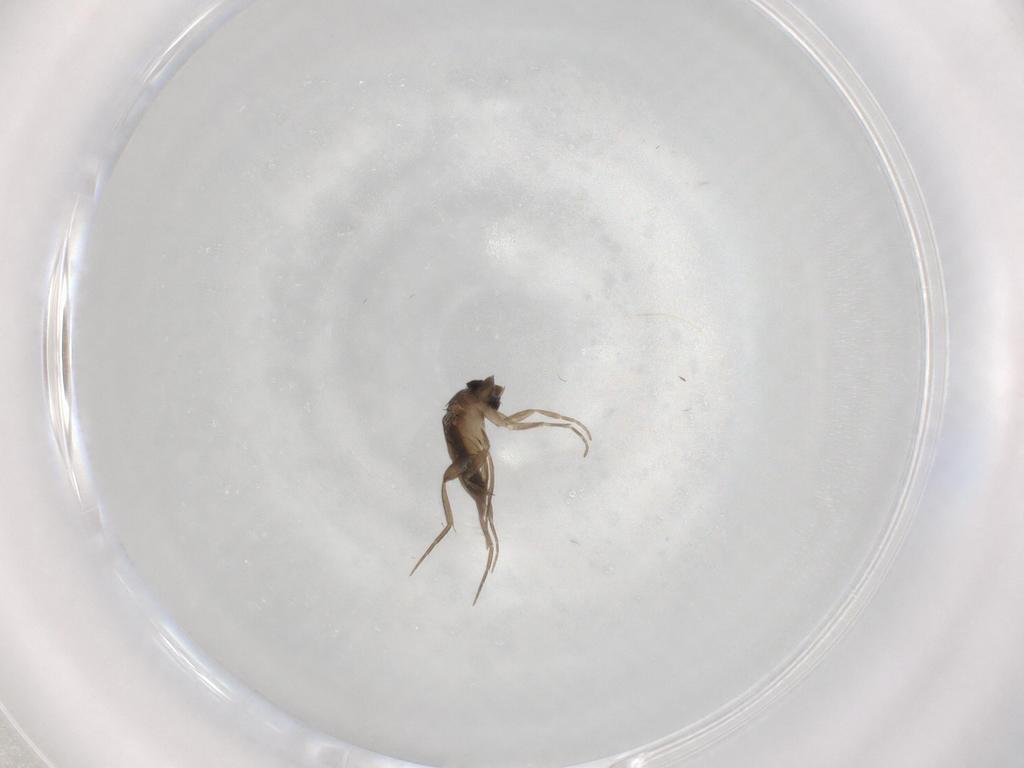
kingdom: Animalia
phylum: Arthropoda
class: Insecta
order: Diptera
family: Phoridae
